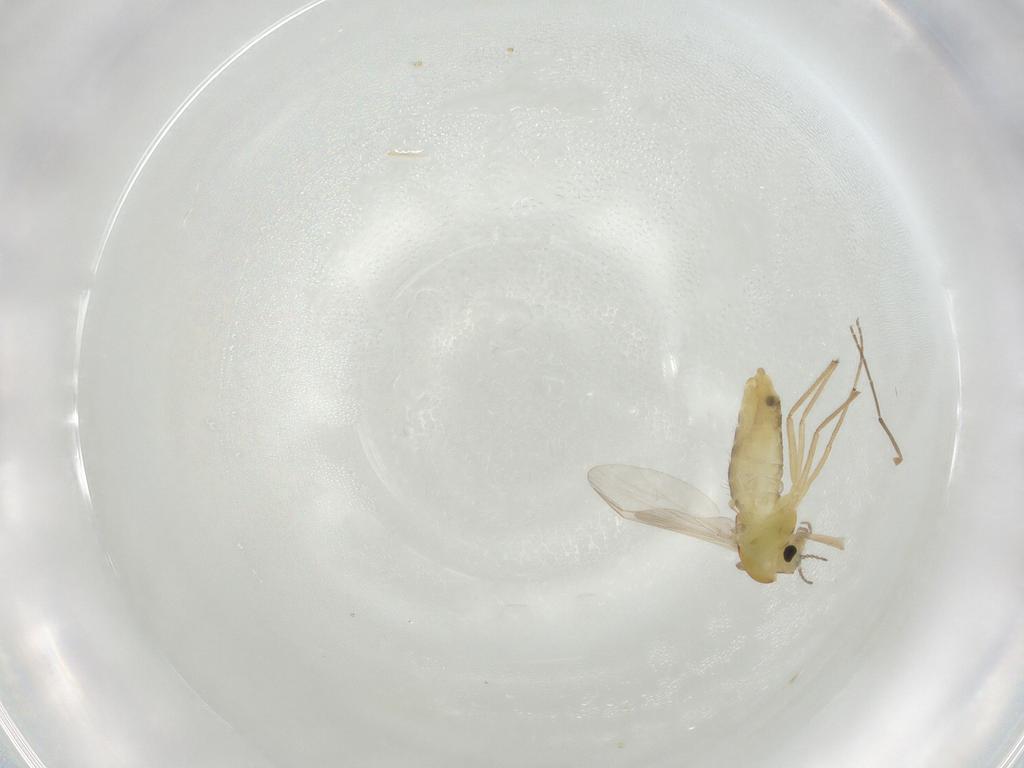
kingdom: Animalia
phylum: Arthropoda
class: Insecta
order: Diptera
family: Chironomidae
